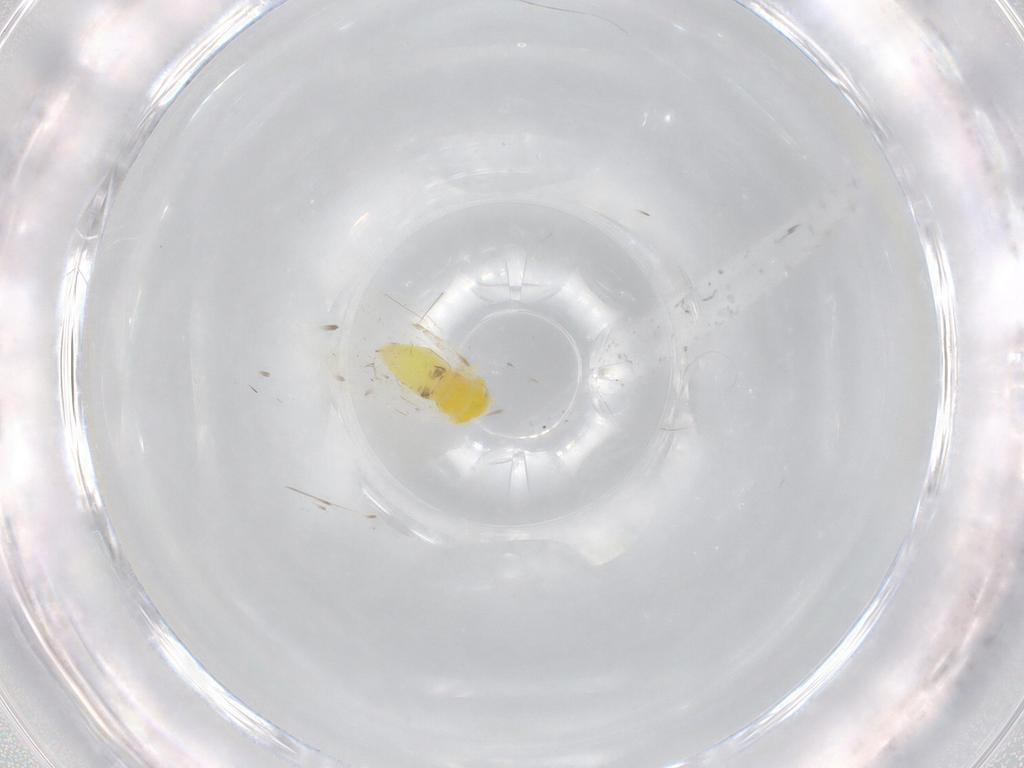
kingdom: Animalia
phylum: Arthropoda
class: Insecta
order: Hemiptera
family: Aleyrodidae
